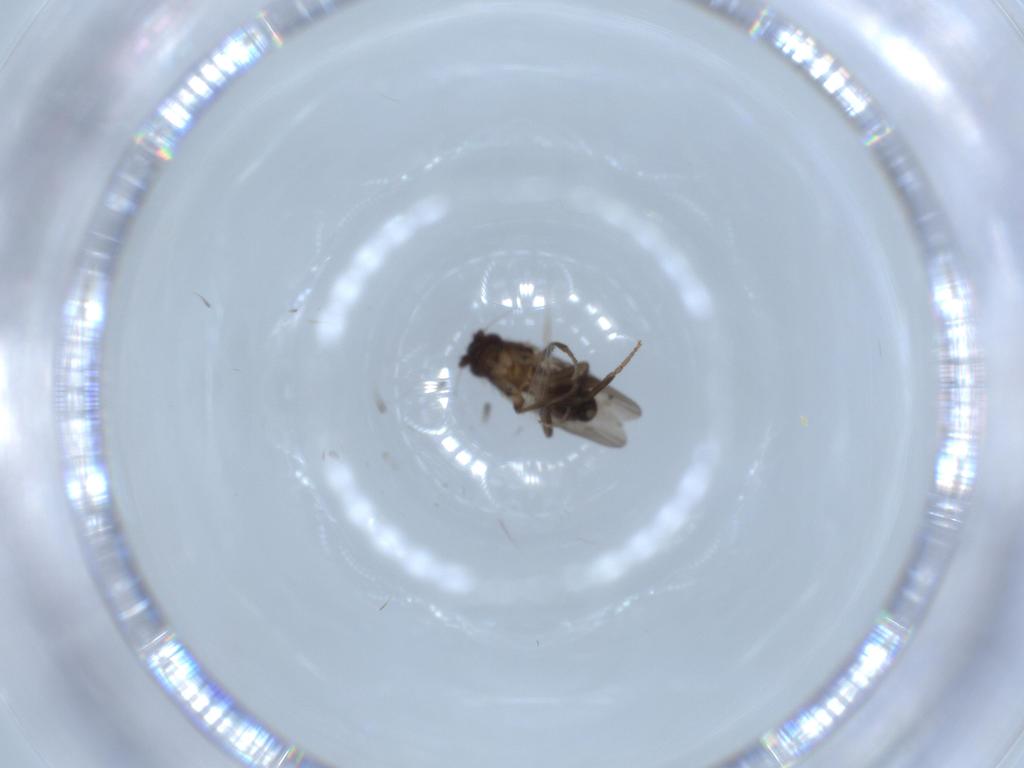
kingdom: Animalia
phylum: Arthropoda
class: Insecta
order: Diptera
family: Sphaeroceridae
